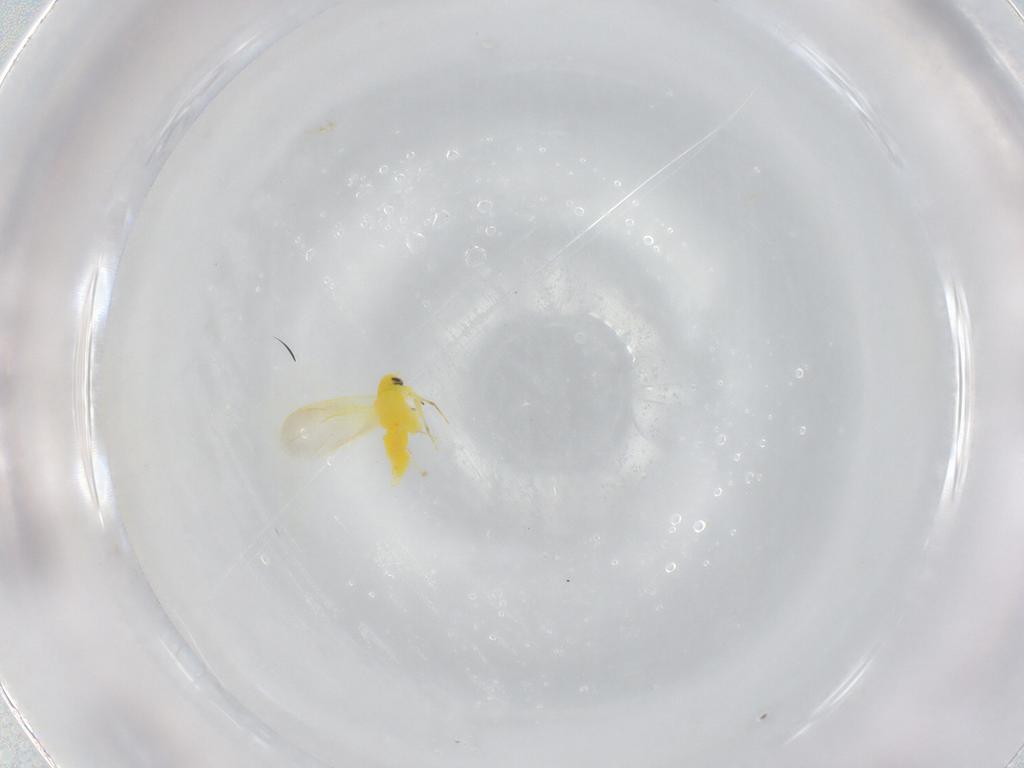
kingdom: Animalia
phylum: Arthropoda
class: Insecta
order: Hemiptera
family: Aleyrodidae
